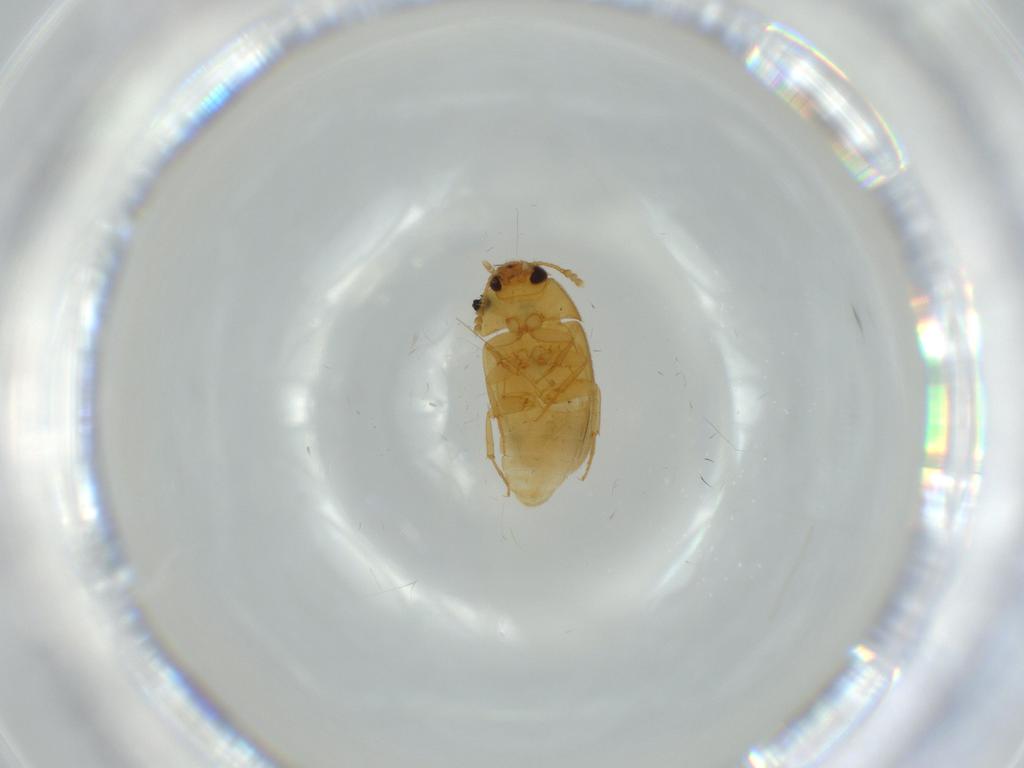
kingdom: Animalia
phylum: Arthropoda
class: Insecta
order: Coleoptera
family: Mycetophagidae
